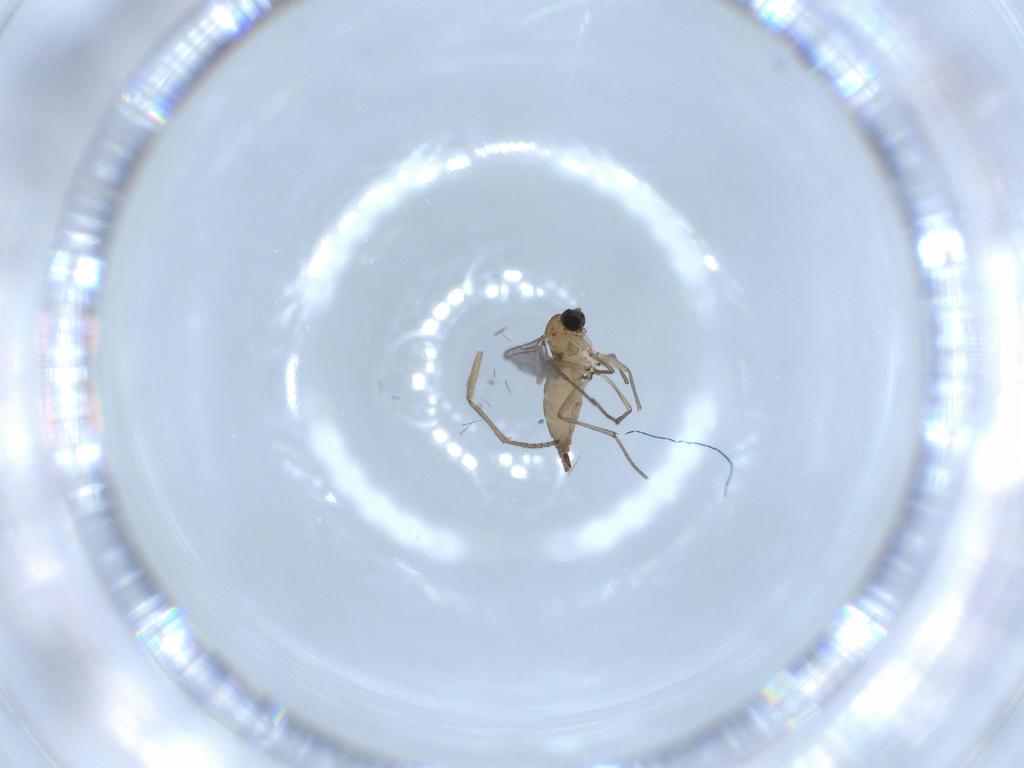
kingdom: Animalia
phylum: Arthropoda
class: Insecta
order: Diptera
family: Sciaridae
